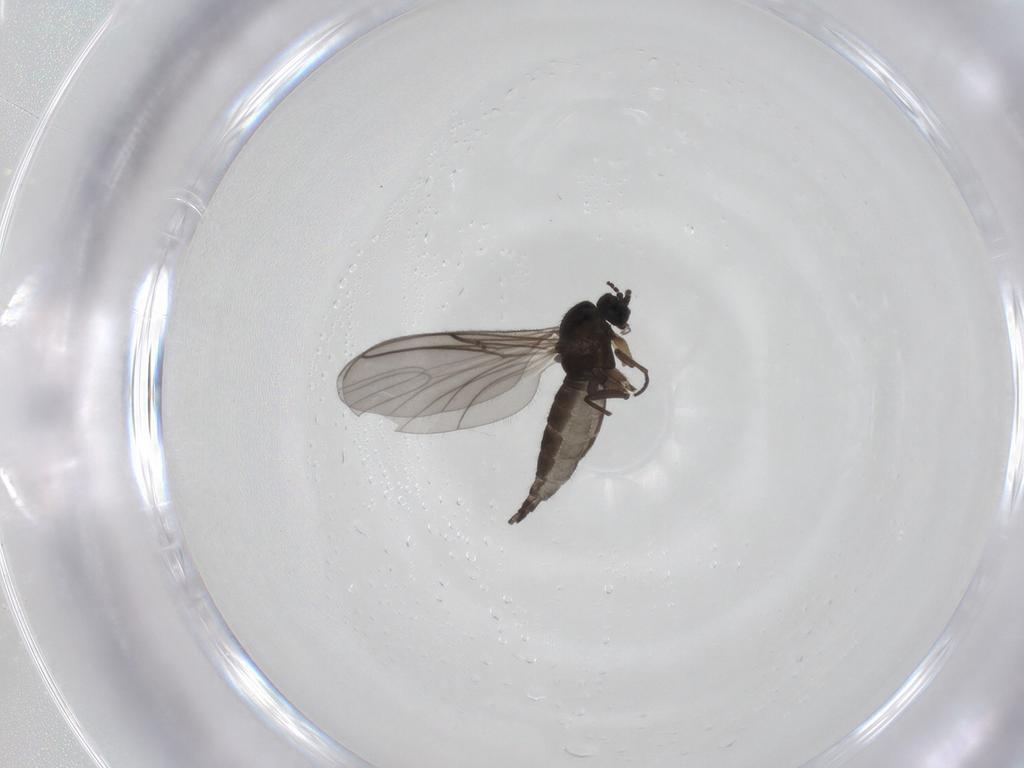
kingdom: Animalia
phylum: Arthropoda
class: Insecta
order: Diptera
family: Sciaridae
